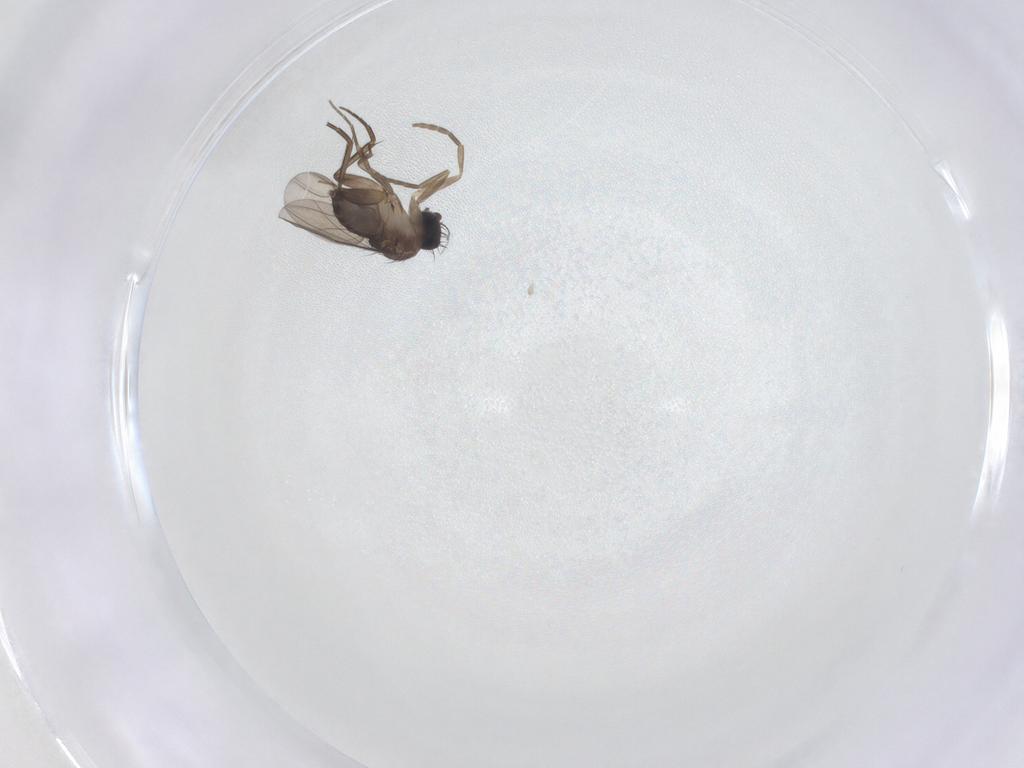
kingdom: Animalia
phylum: Arthropoda
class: Insecta
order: Diptera
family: Phoridae
